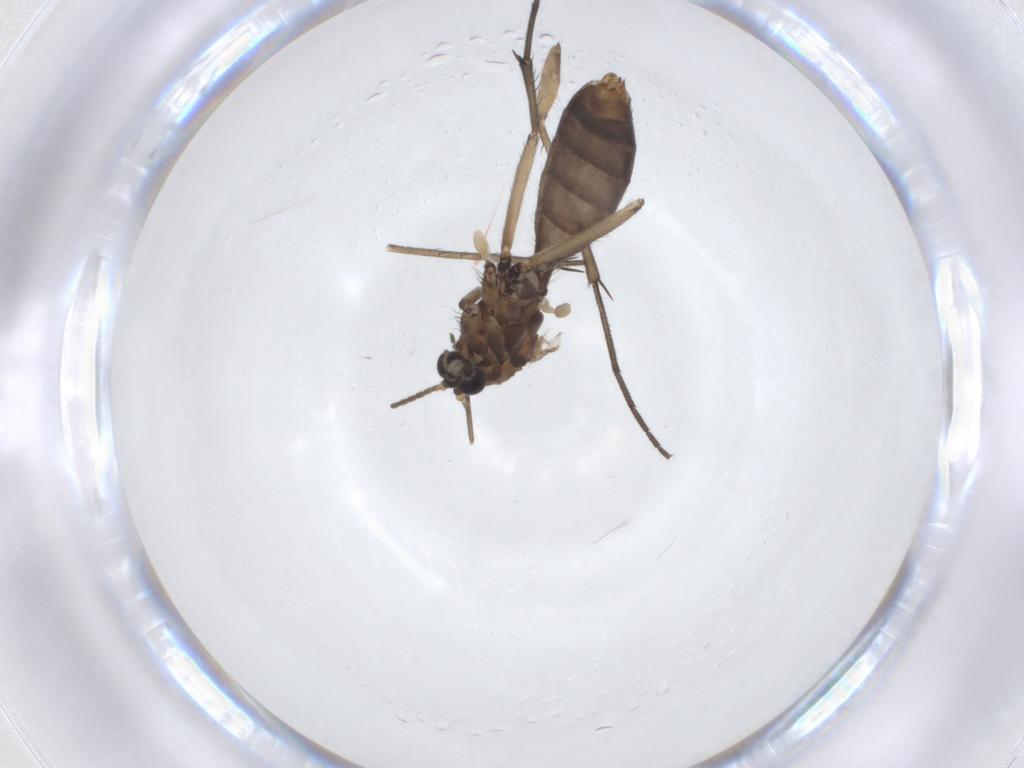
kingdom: Animalia
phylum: Arthropoda
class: Insecta
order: Diptera
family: Mycetophilidae
